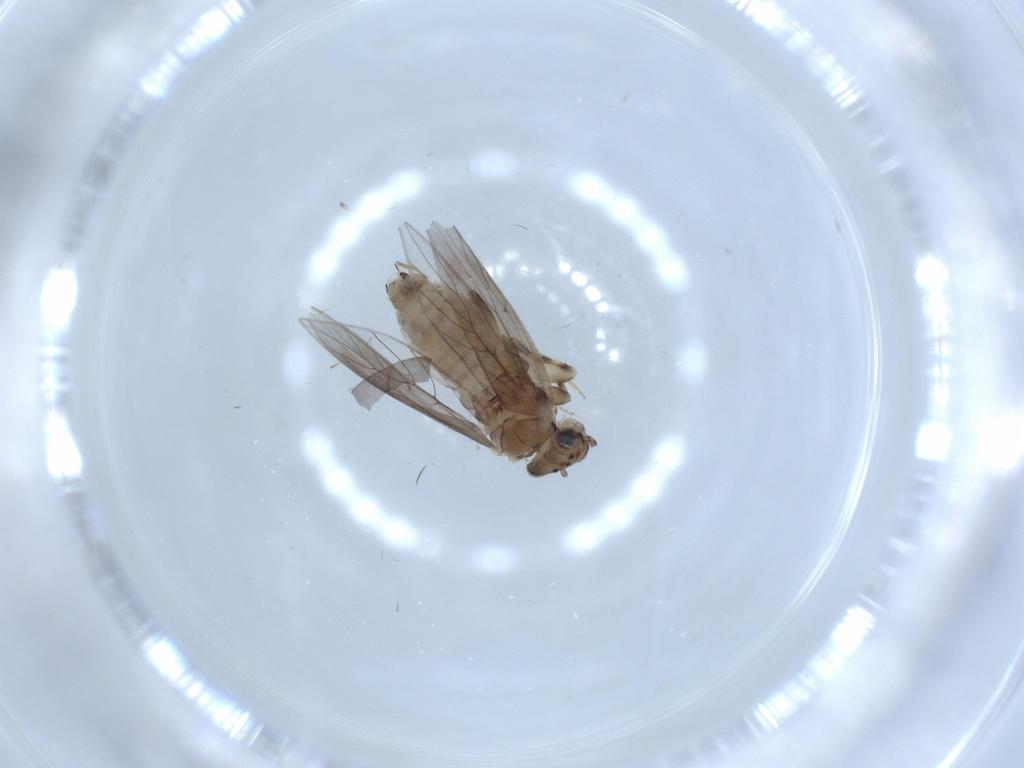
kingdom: Animalia
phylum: Arthropoda
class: Insecta
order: Psocodea
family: Lepidopsocidae
